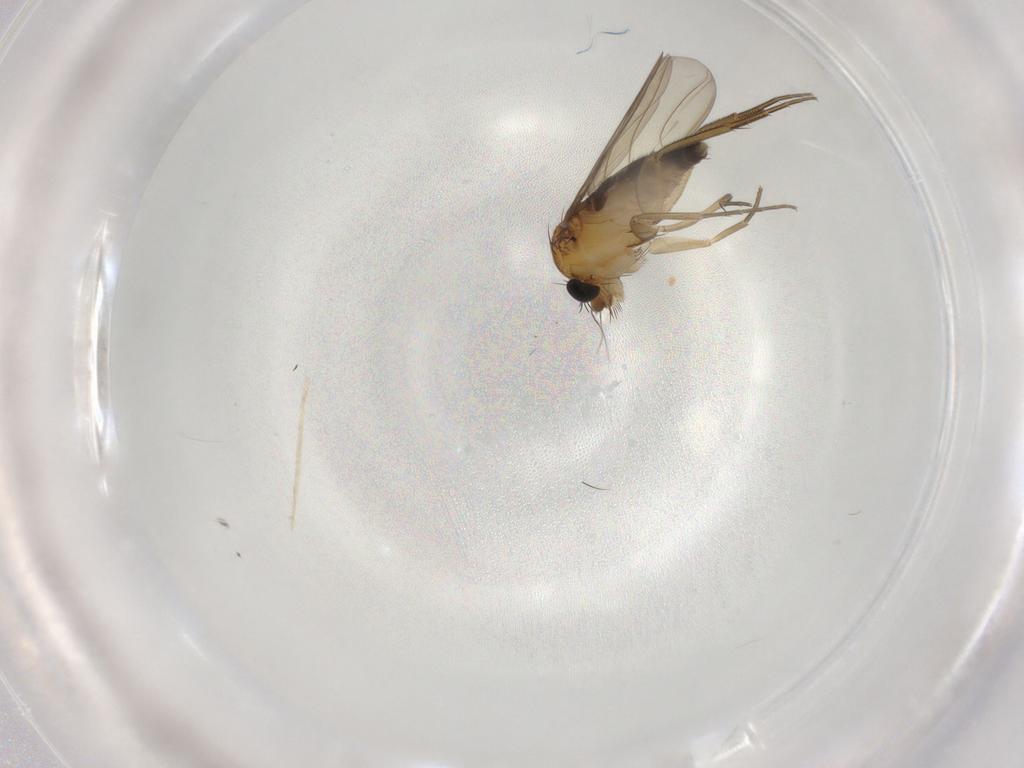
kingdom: Animalia
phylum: Arthropoda
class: Insecta
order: Diptera
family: Phoridae
